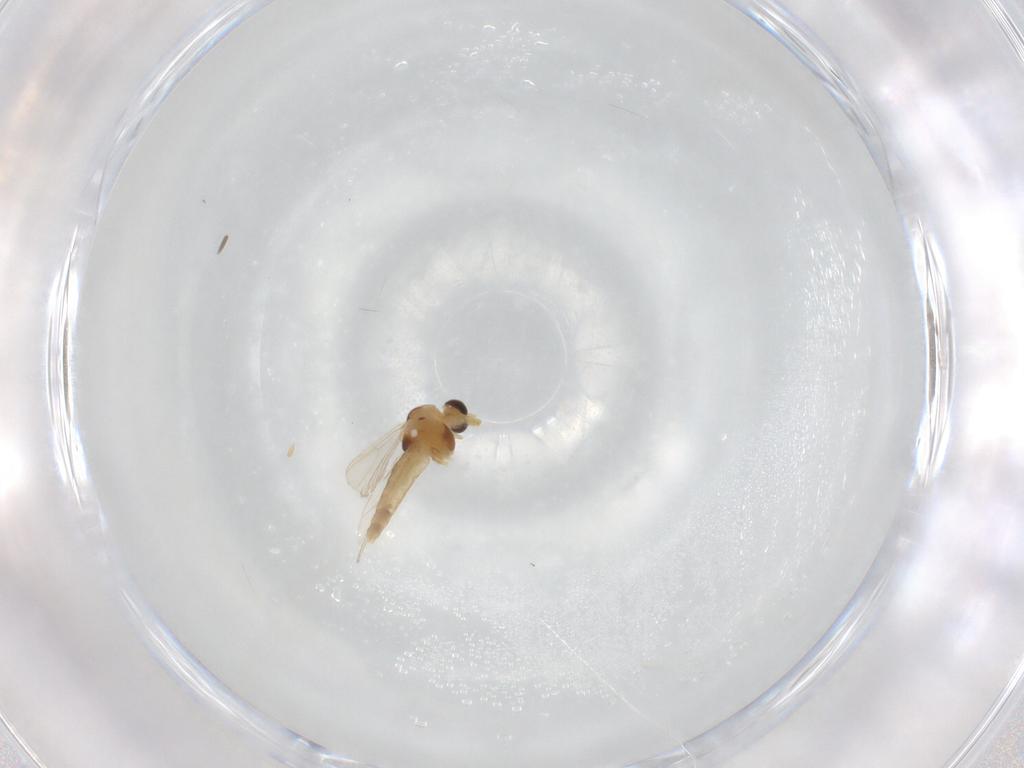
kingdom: Animalia
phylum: Arthropoda
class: Insecta
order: Diptera
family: Chironomidae
